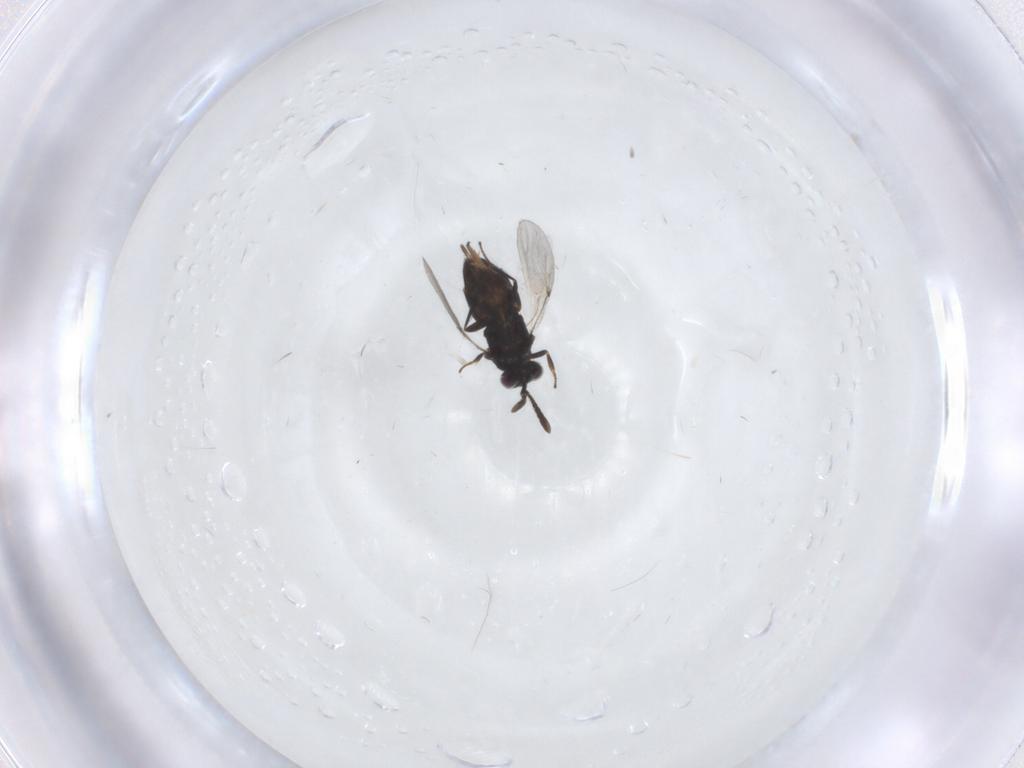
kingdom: Animalia
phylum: Arthropoda
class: Insecta
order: Hymenoptera
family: Encyrtidae
